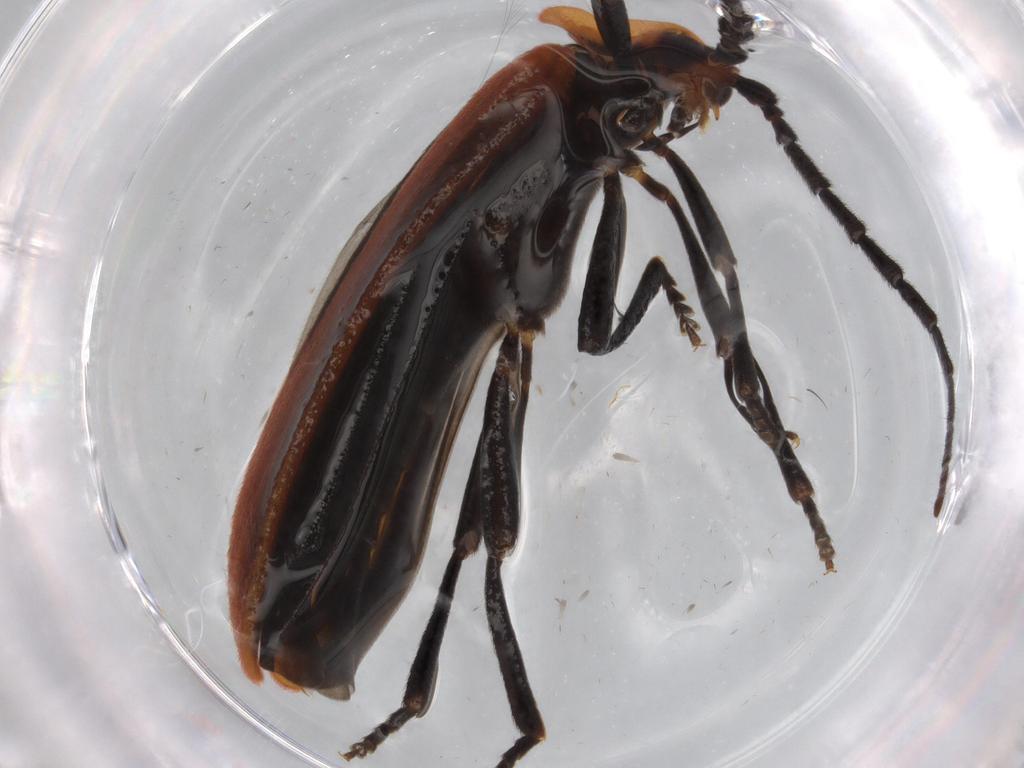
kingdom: Animalia
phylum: Arthropoda
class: Insecta
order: Coleoptera
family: Lycidae
